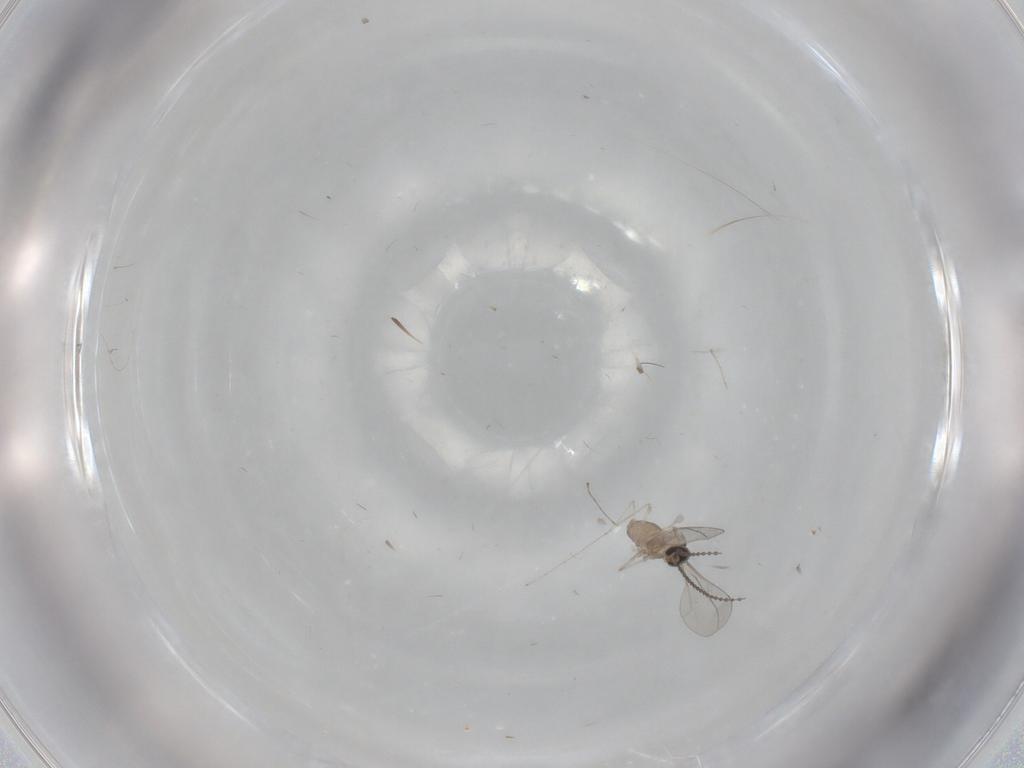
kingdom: Animalia
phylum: Arthropoda
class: Insecta
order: Diptera
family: Cecidomyiidae
